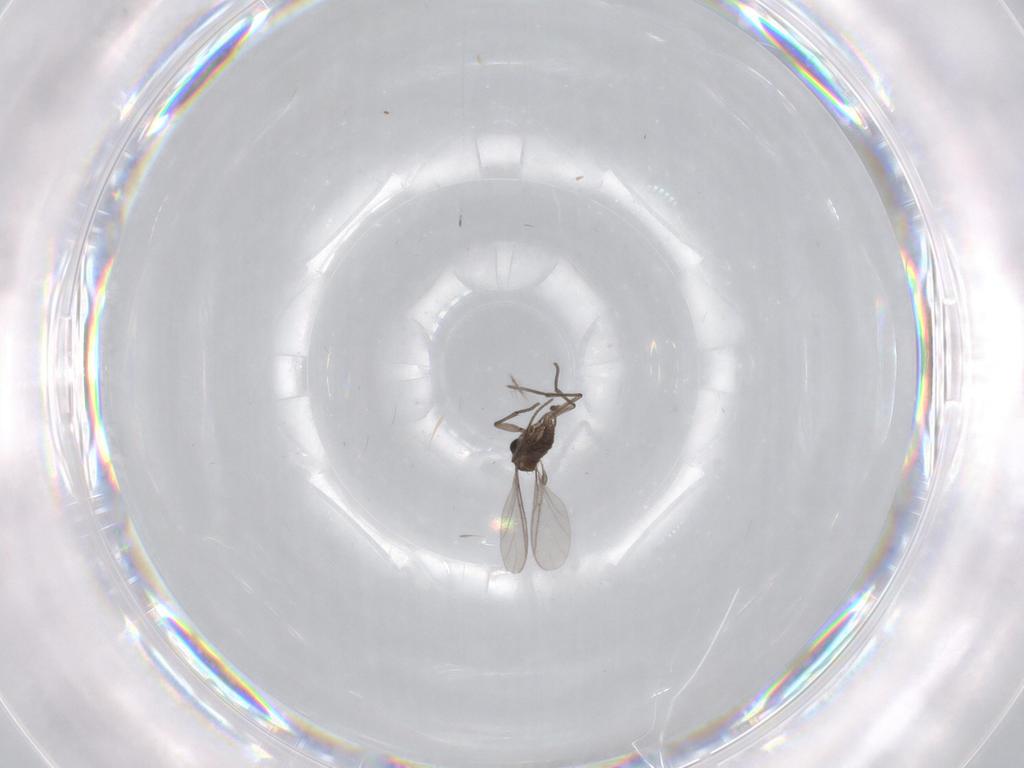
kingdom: Animalia
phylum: Arthropoda
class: Insecta
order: Diptera
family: Sciaridae
